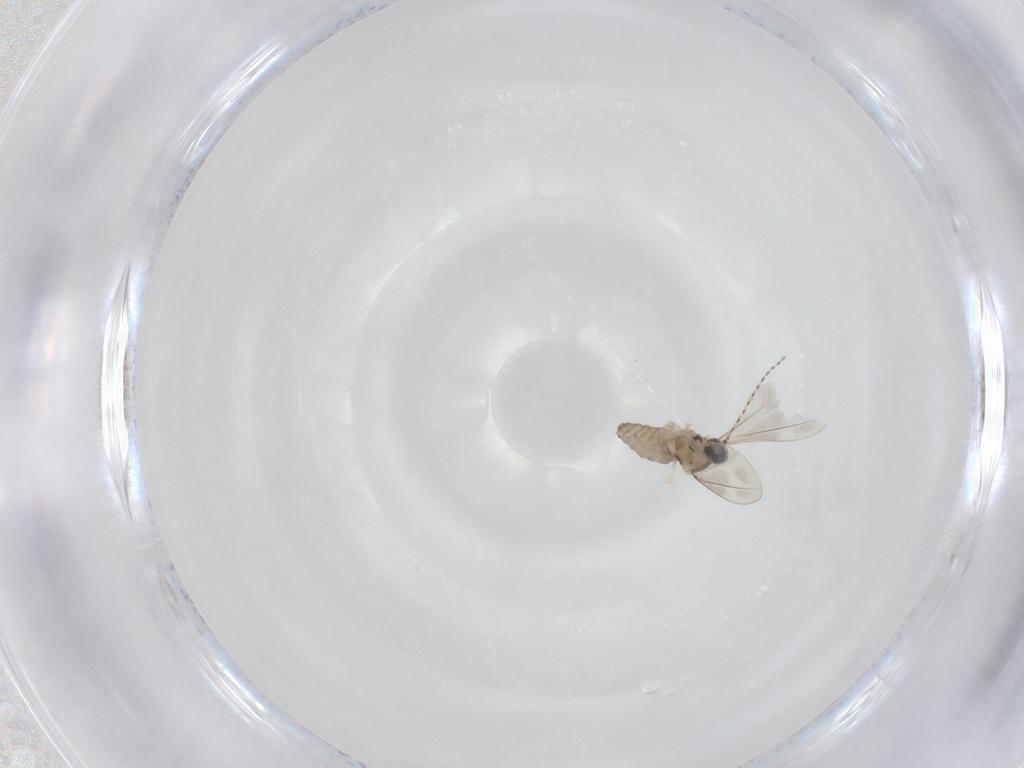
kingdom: Animalia
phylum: Arthropoda
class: Insecta
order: Diptera
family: Cecidomyiidae
